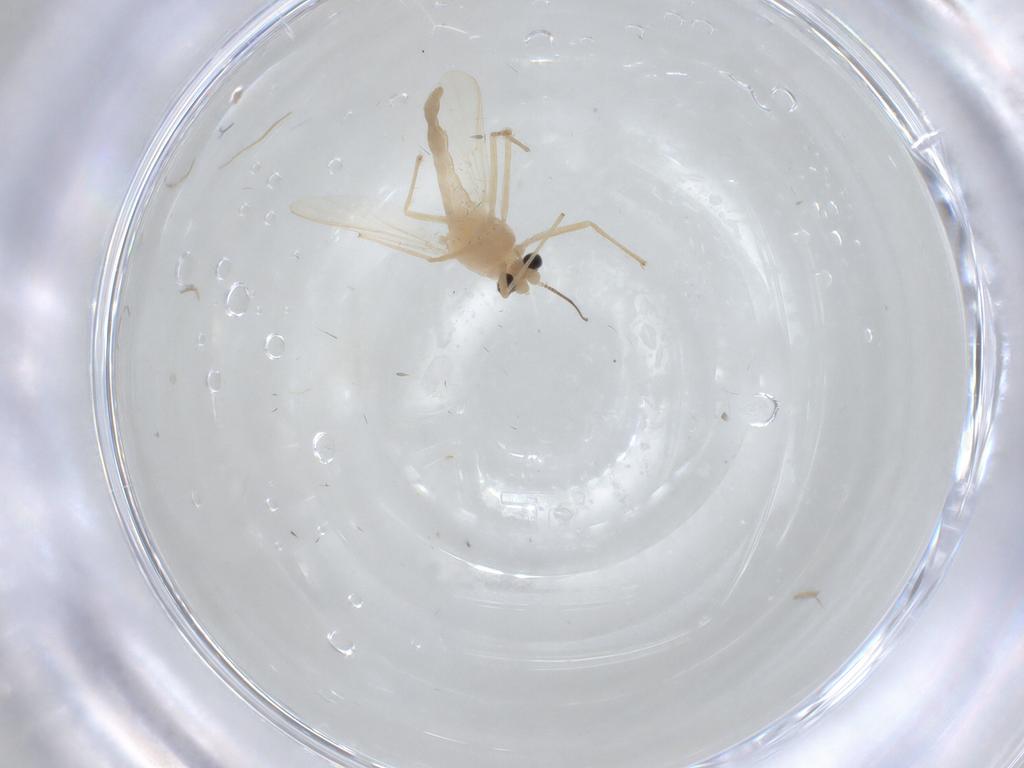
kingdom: Animalia
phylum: Arthropoda
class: Insecta
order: Diptera
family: Chironomidae
